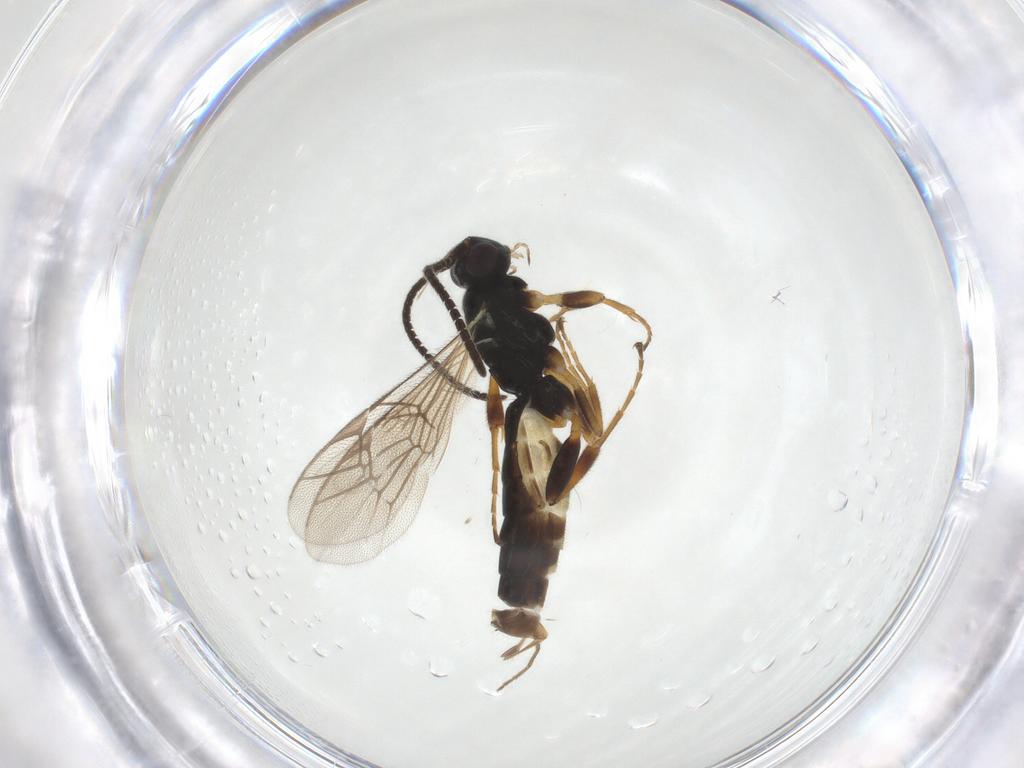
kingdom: Animalia
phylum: Arthropoda
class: Insecta
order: Hymenoptera
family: Ichneumonidae
